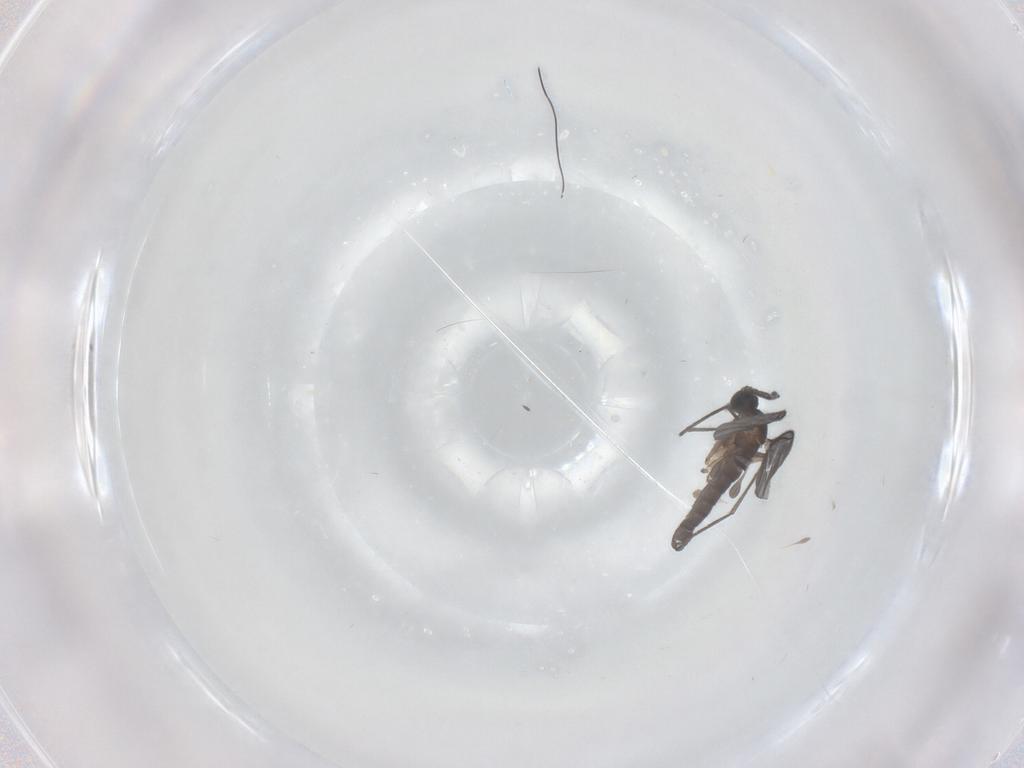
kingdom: Animalia
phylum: Arthropoda
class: Insecta
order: Diptera
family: Sciaridae
